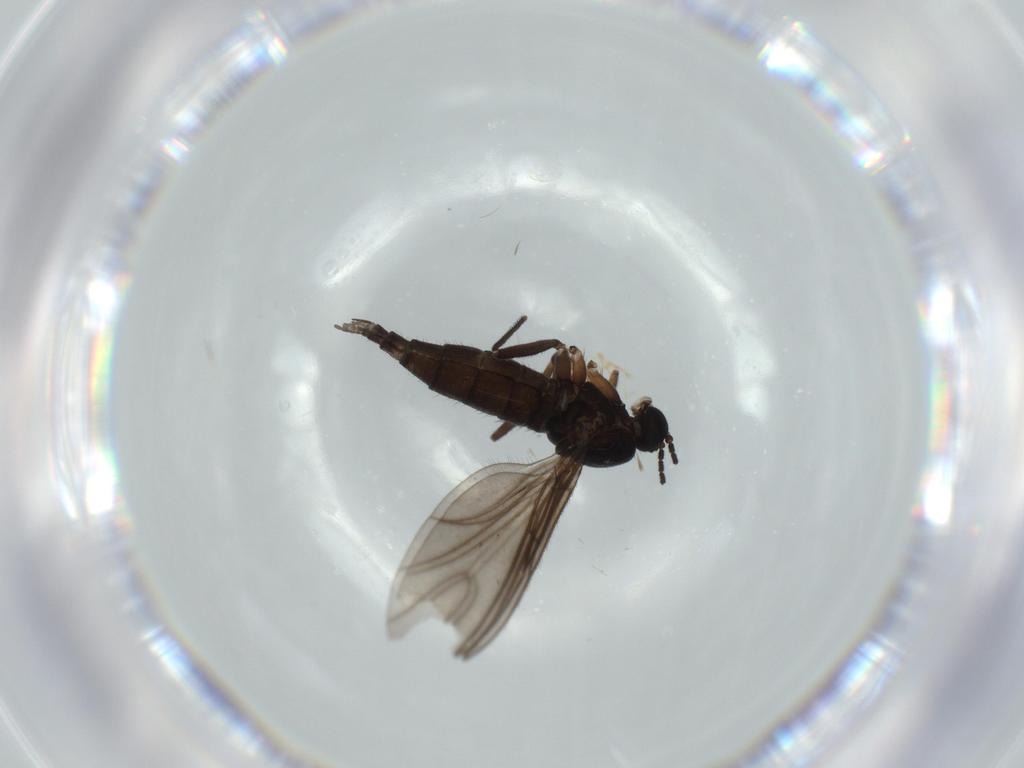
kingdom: Animalia
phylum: Arthropoda
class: Insecta
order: Diptera
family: Sciaridae
